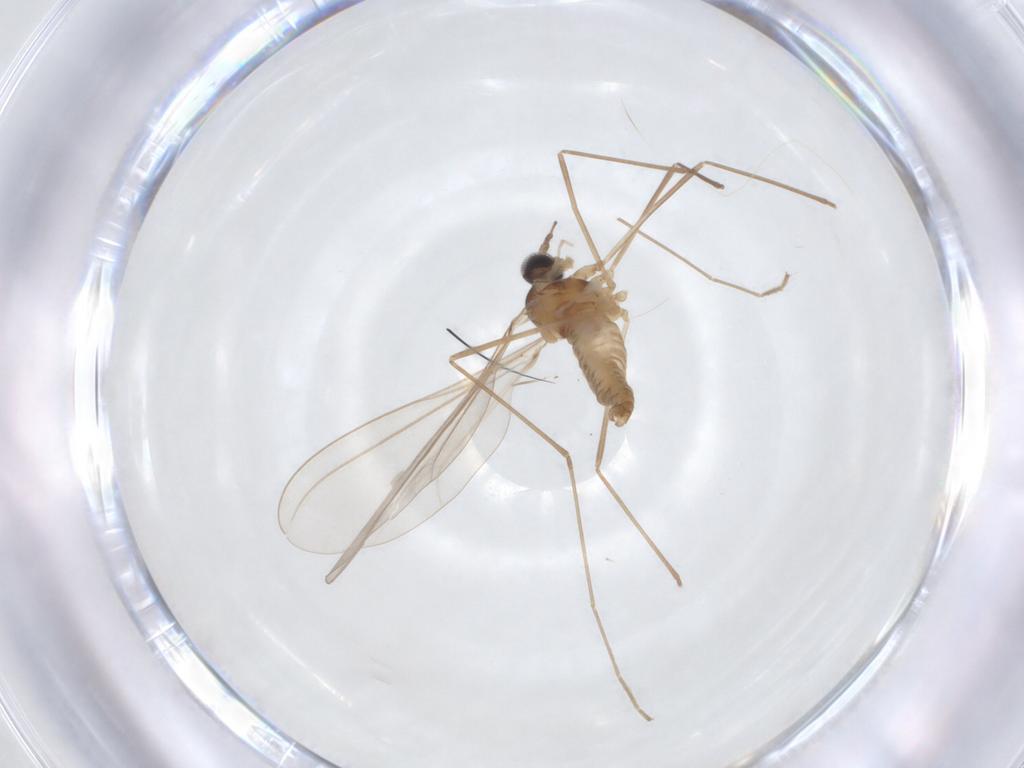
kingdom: Animalia
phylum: Arthropoda
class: Insecta
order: Diptera
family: Cecidomyiidae
